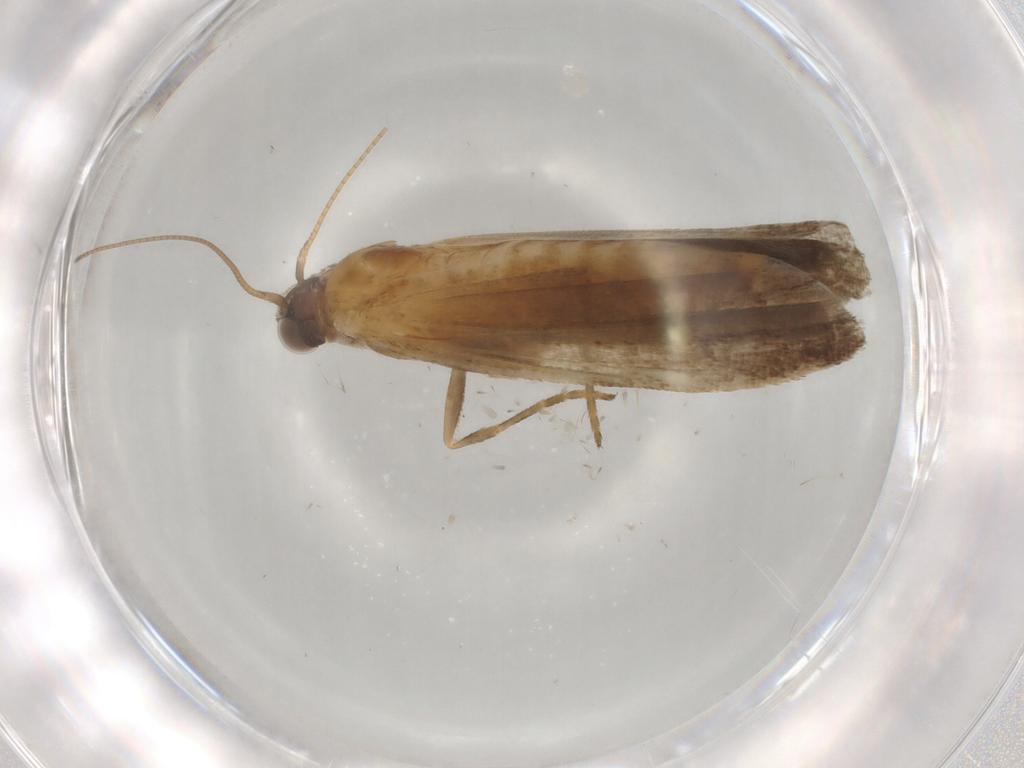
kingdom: Animalia
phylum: Arthropoda
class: Insecta
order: Lepidoptera
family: Noctuidae
